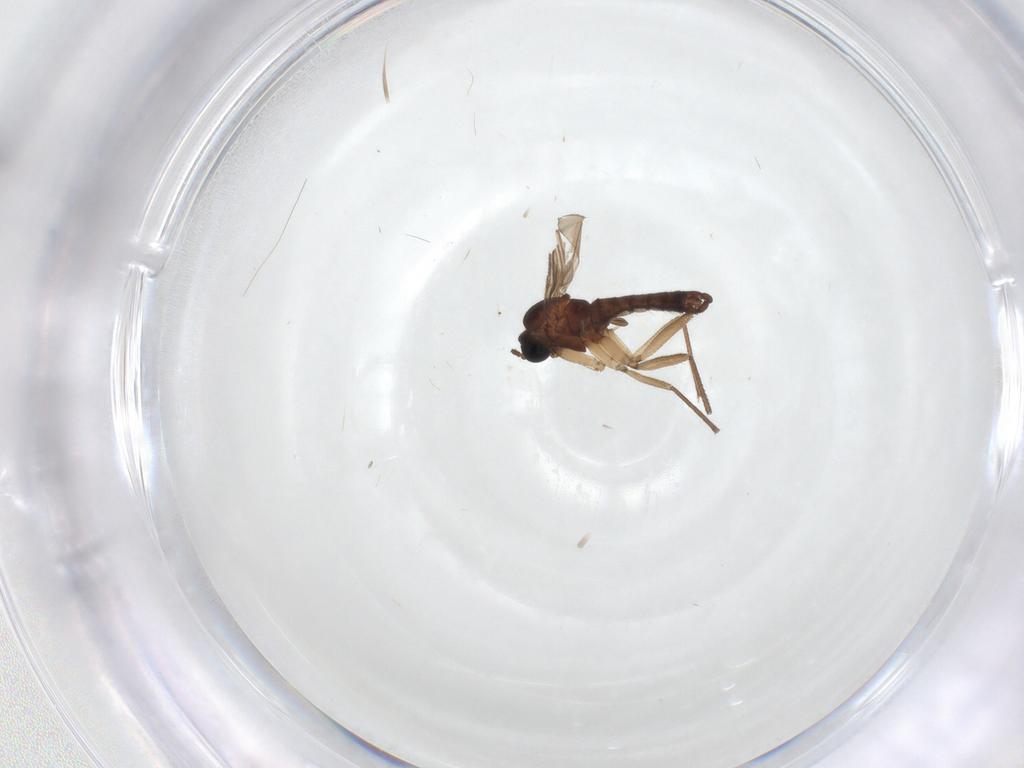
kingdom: Animalia
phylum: Arthropoda
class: Insecta
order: Diptera
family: Sciaridae
